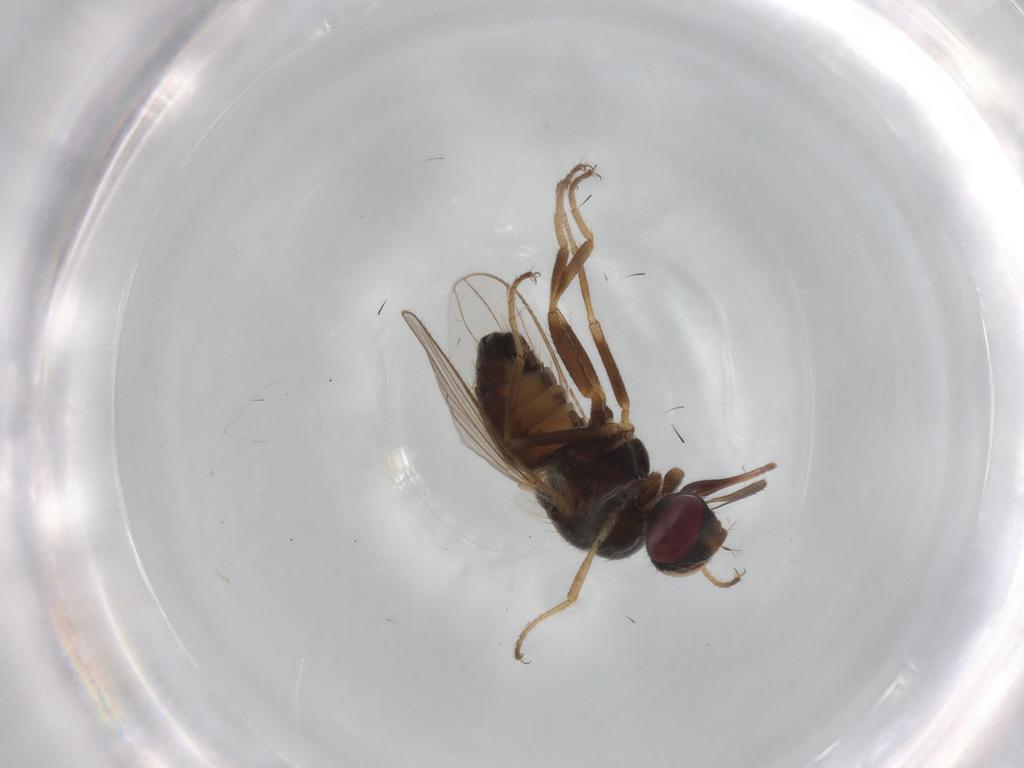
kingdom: Animalia
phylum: Arthropoda
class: Insecta
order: Diptera
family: Muscidae
